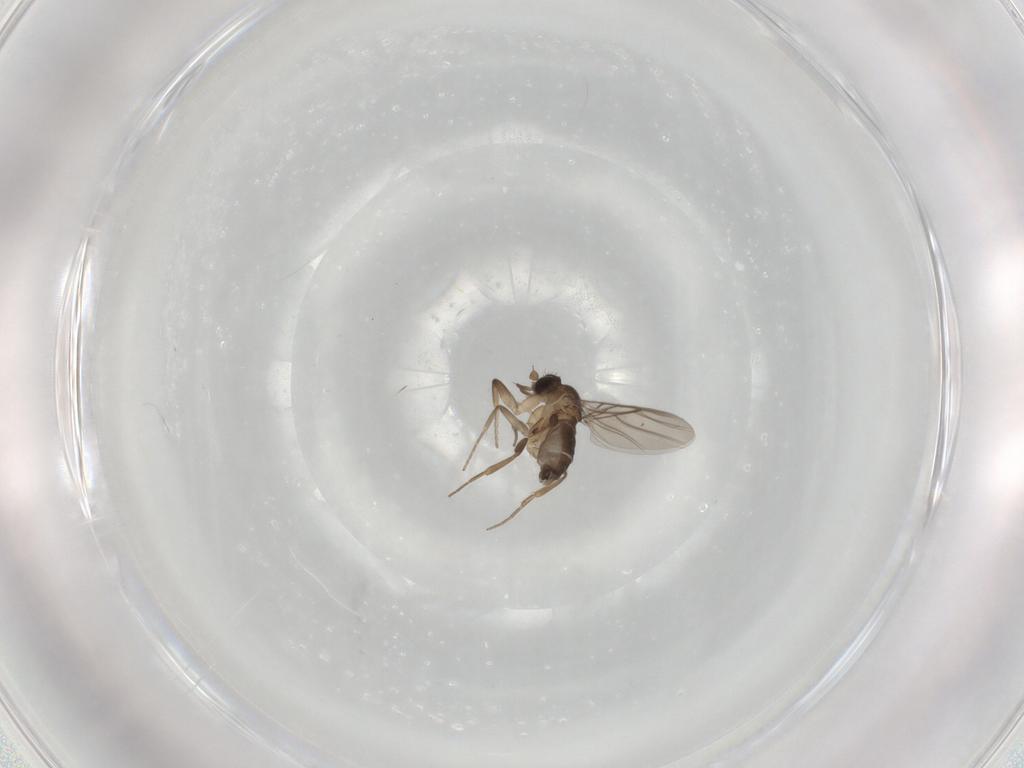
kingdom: Animalia
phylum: Arthropoda
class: Insecta
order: Diptera
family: Phoridae
